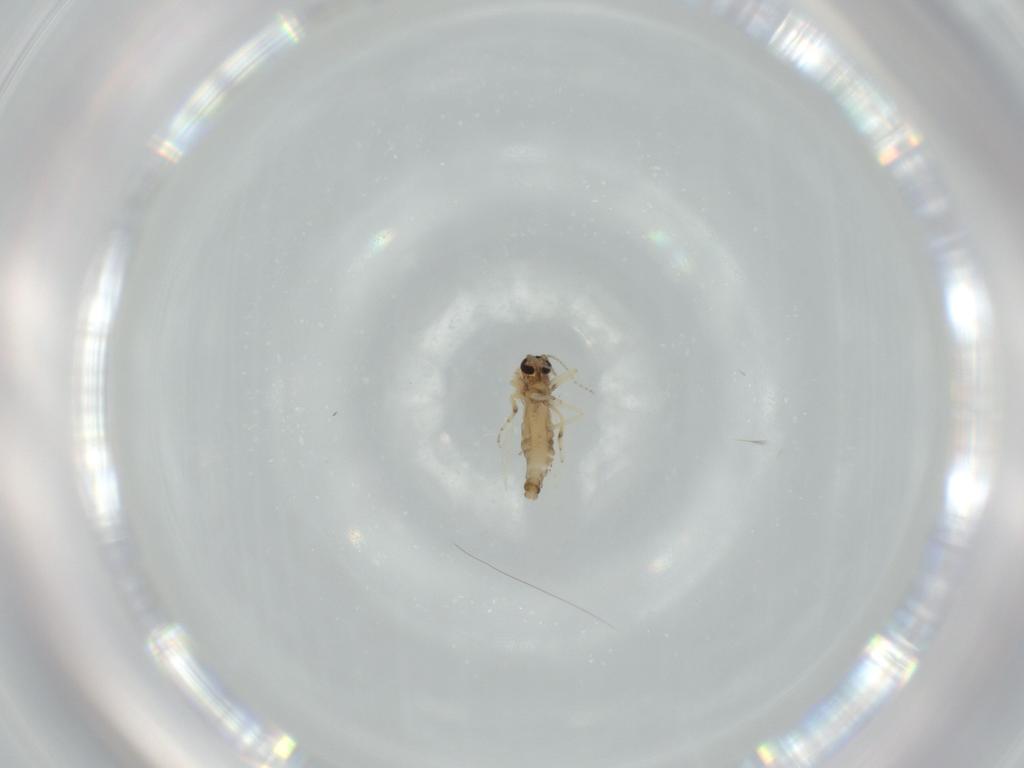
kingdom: Animalia
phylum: Arthropoda
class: Insecta
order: Diptera
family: Ceratopogonidae
